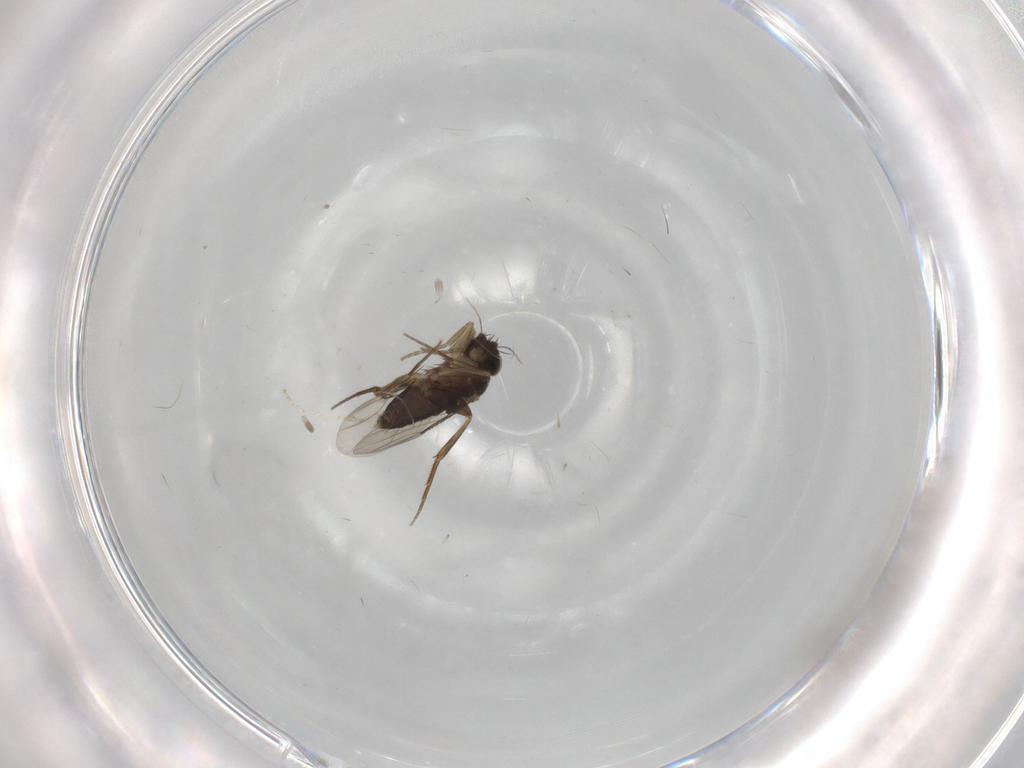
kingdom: Animalia
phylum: Arthropoda
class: Insecta
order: Diptera
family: Phoridae
